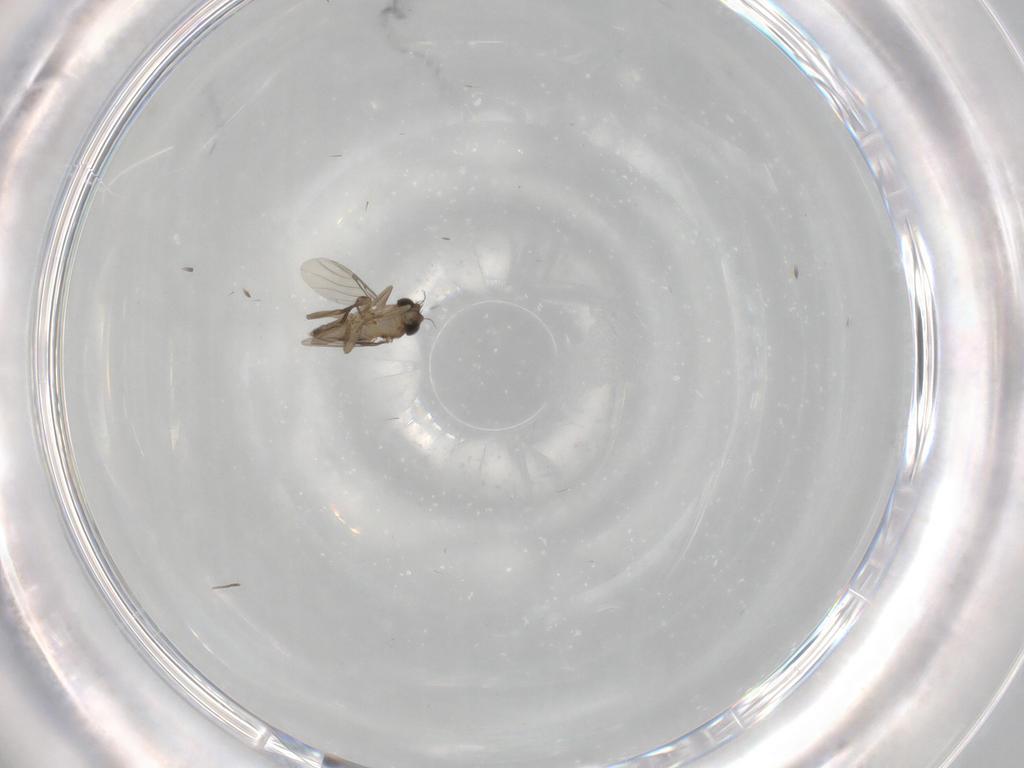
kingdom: Animalia
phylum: Arthropoda
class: Insecta
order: Diptera
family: Phoridae
